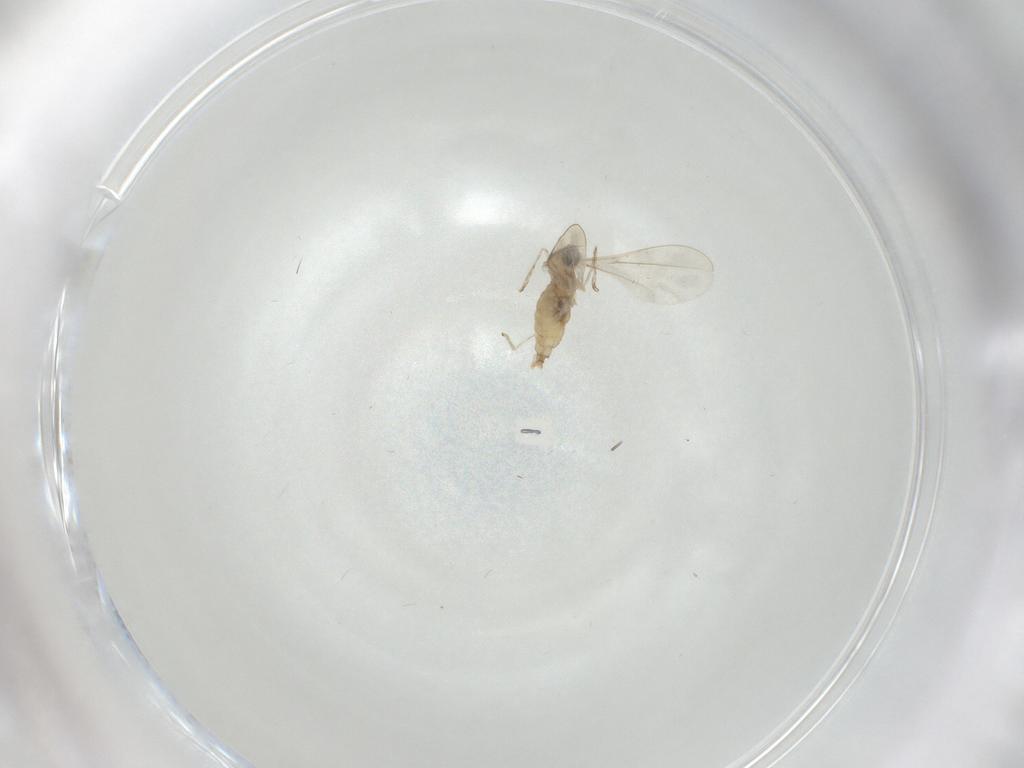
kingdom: Animalia
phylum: Arthropoda
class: Insecta
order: Diptera
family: Cecidomyiidae
